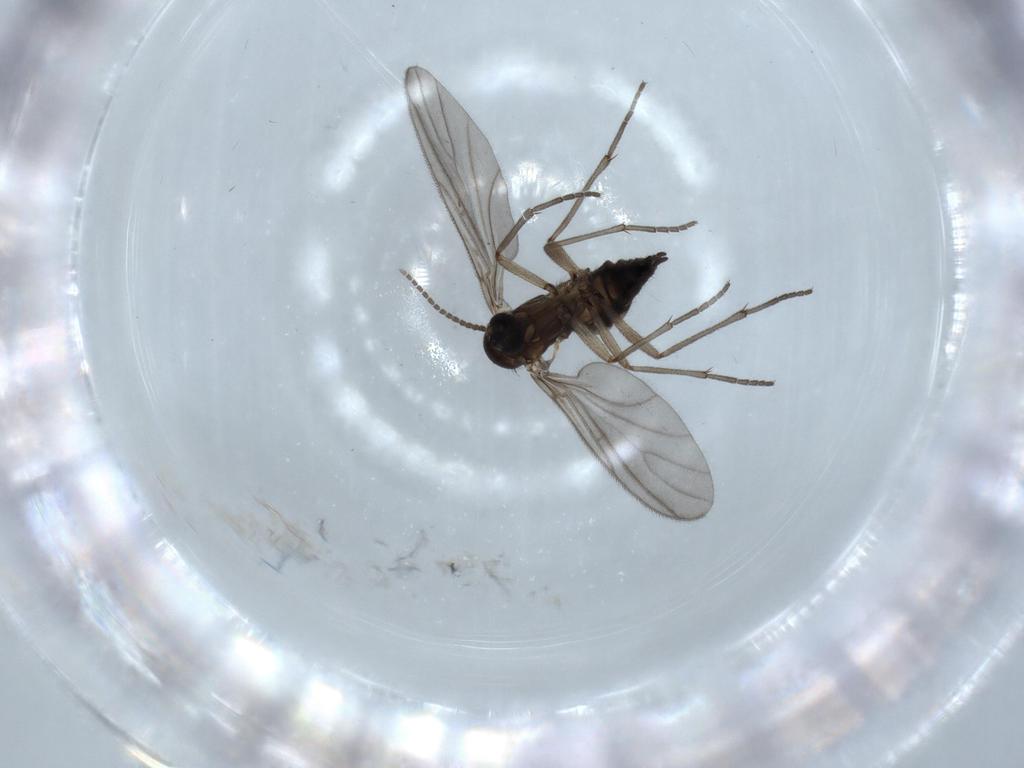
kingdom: Animalia
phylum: Arthropoda
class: Insecta
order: Diptera
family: Sciaridae
